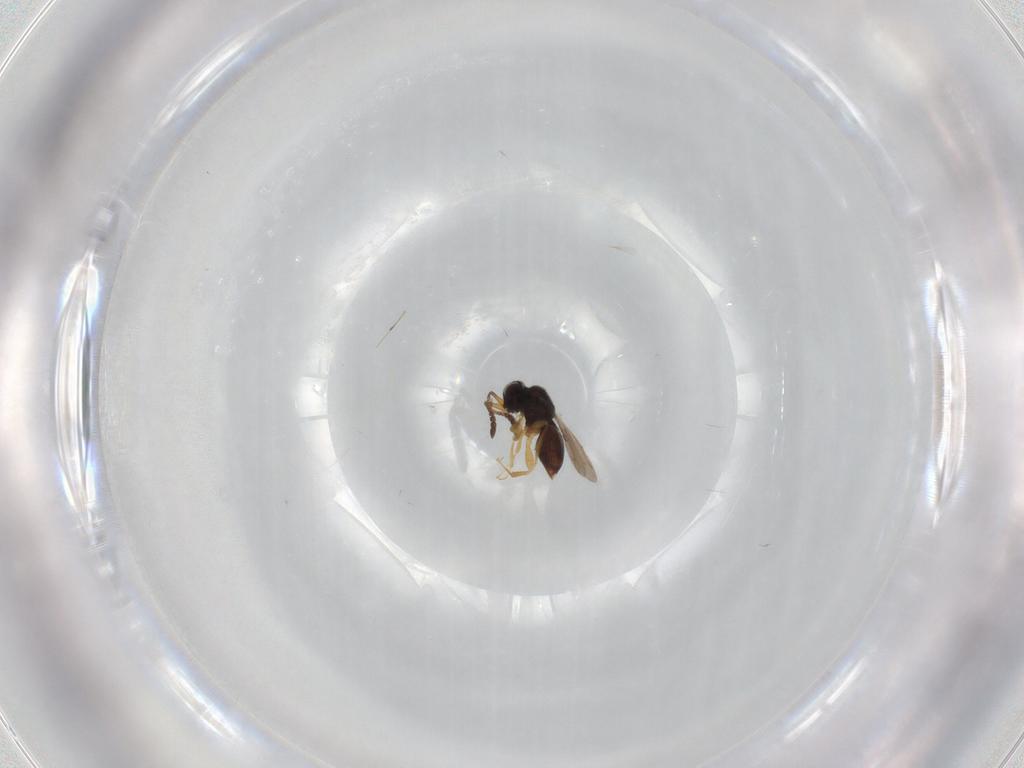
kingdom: Animalia
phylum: Arthropoda
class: Insecta
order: Hymenoptera
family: Ceraphronidae
